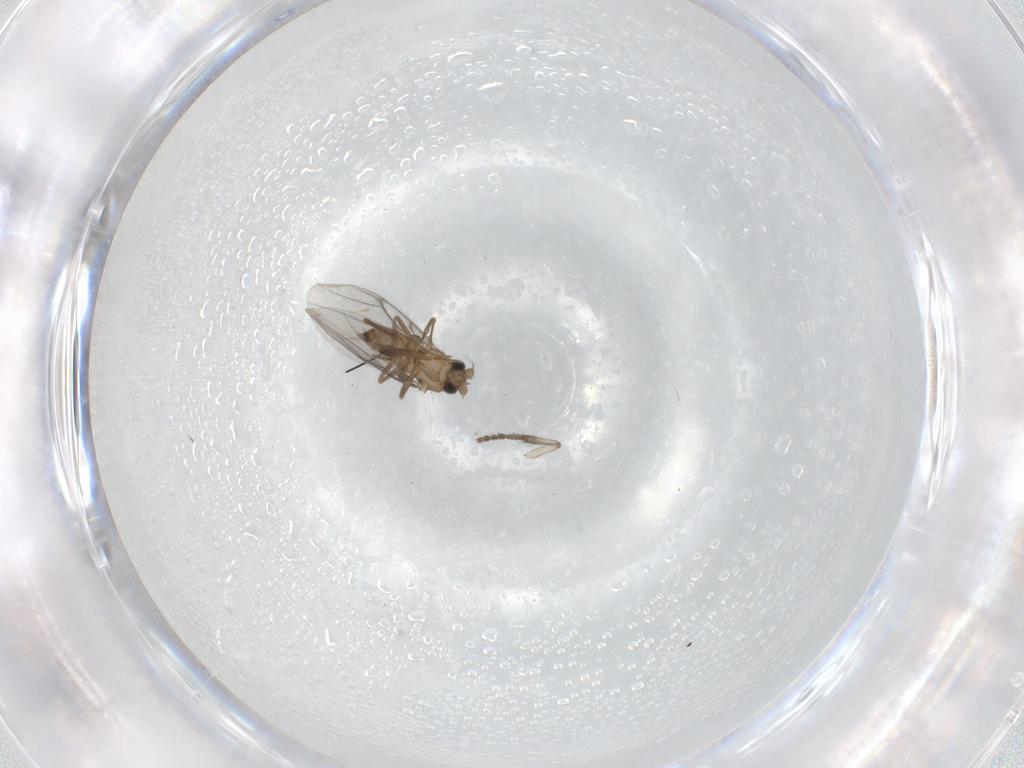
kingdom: Animalia
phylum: Arthropoda
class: Insecta
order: Diptera
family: Psychodidae
